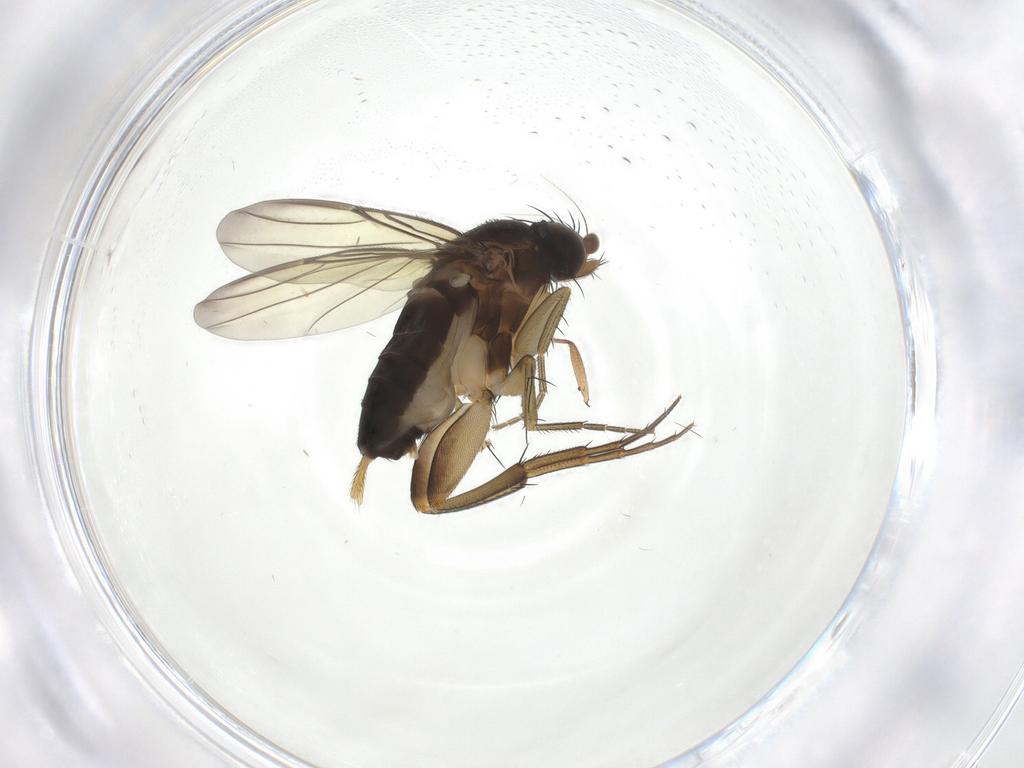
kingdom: Animalia
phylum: Arthropoda
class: Insecta
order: Diptera
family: Phoridae
